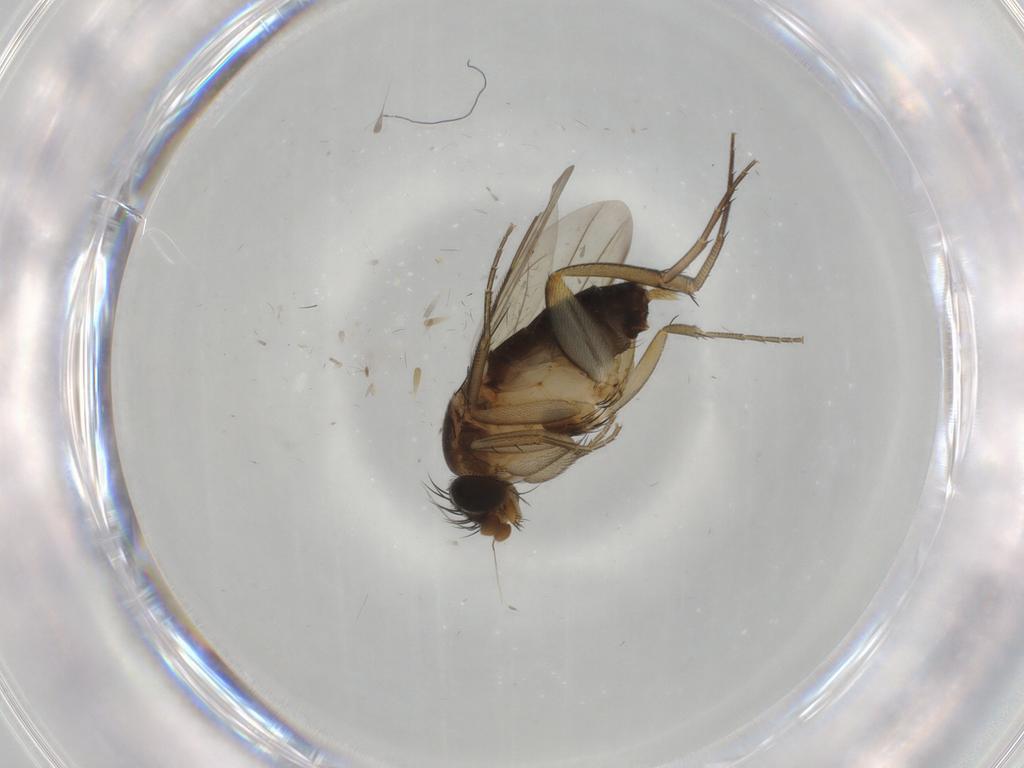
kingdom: Animalia
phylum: Arthropoda
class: Insecta
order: Diptera
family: Phoridae
